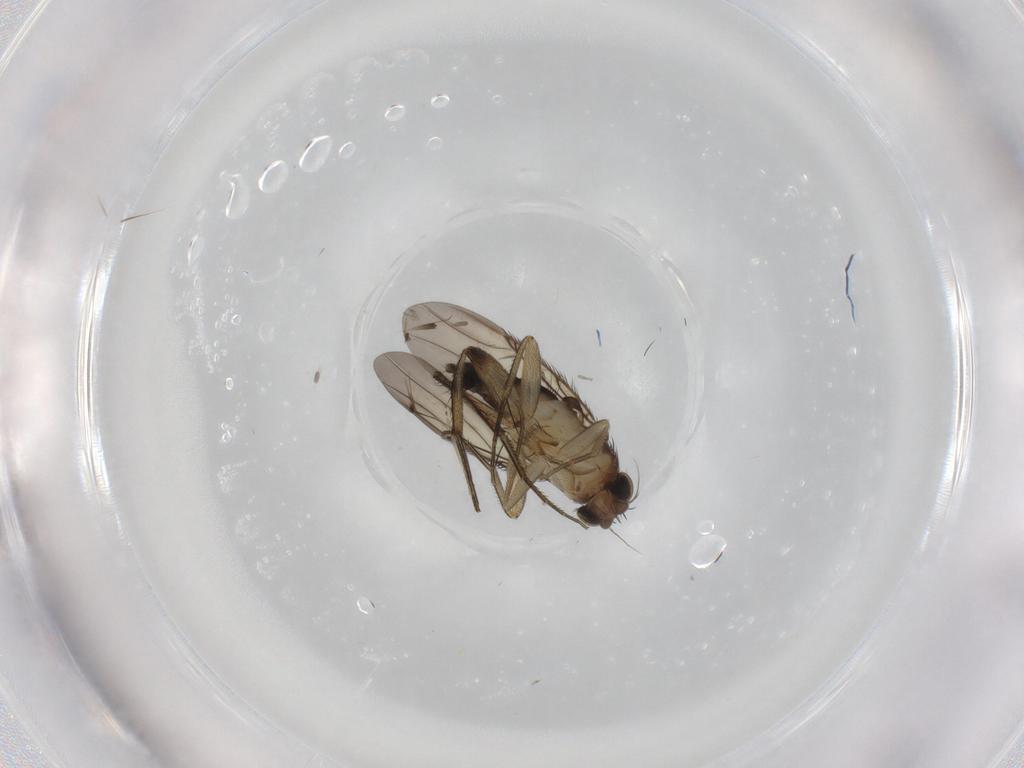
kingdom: Animalia
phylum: Arthropoda
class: Insecta
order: Diptera
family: Phoridae
